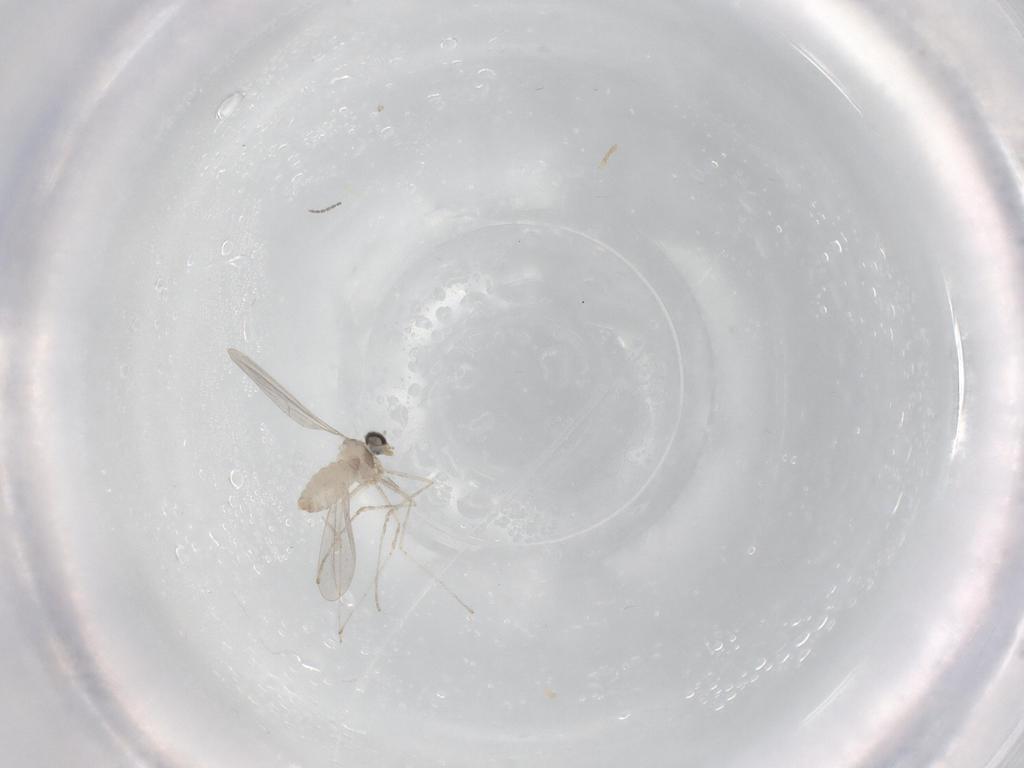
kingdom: Animalia
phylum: Arthropoda
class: Insecta
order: Diptera
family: Cecidomyiidae
